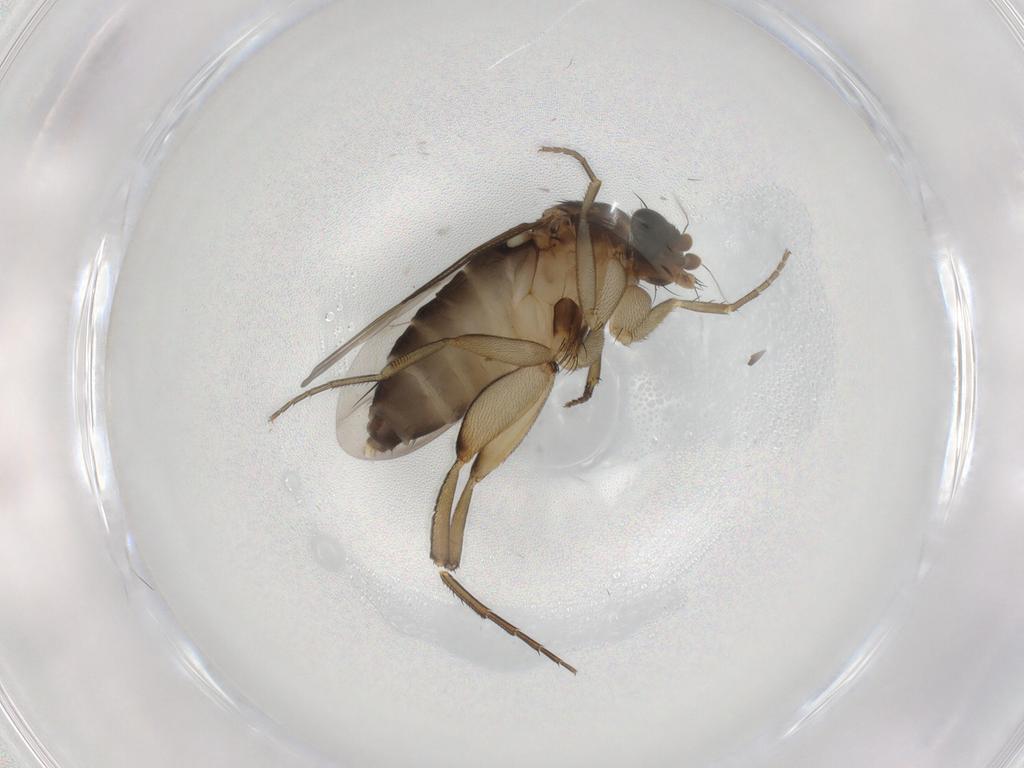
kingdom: Animalia
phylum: Arthropoda
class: Insecta
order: Diptera
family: Phoridae
